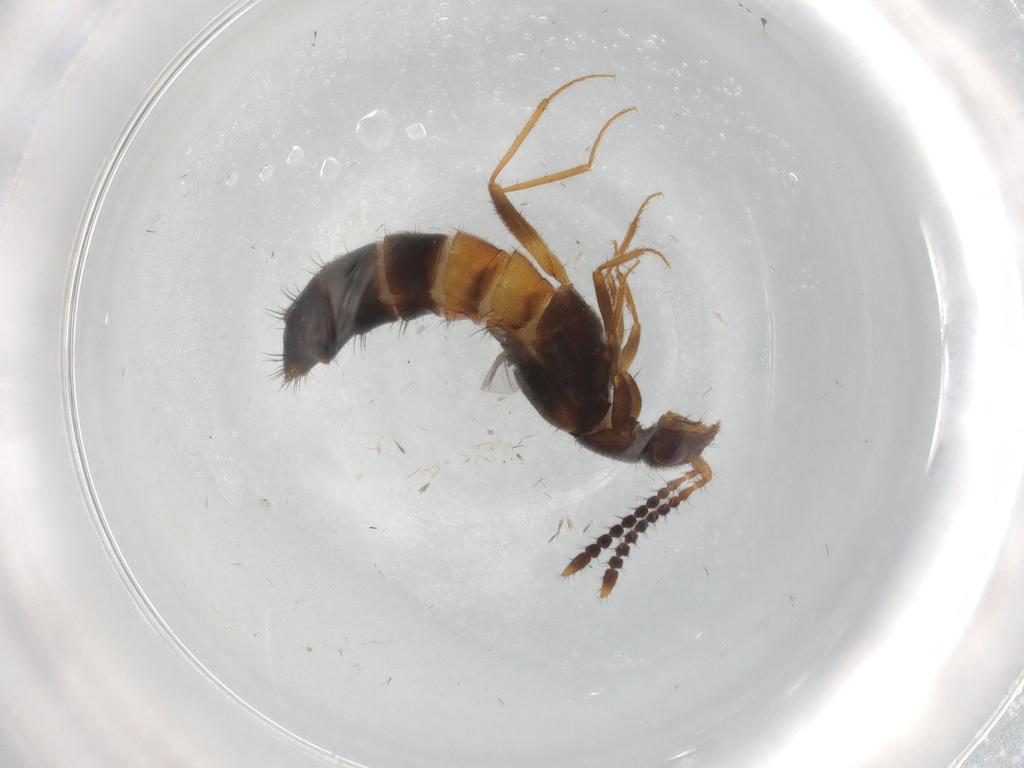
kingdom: Animalia
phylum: Arthropoda
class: Insecta
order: Coleoptera
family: Staphylinidae
